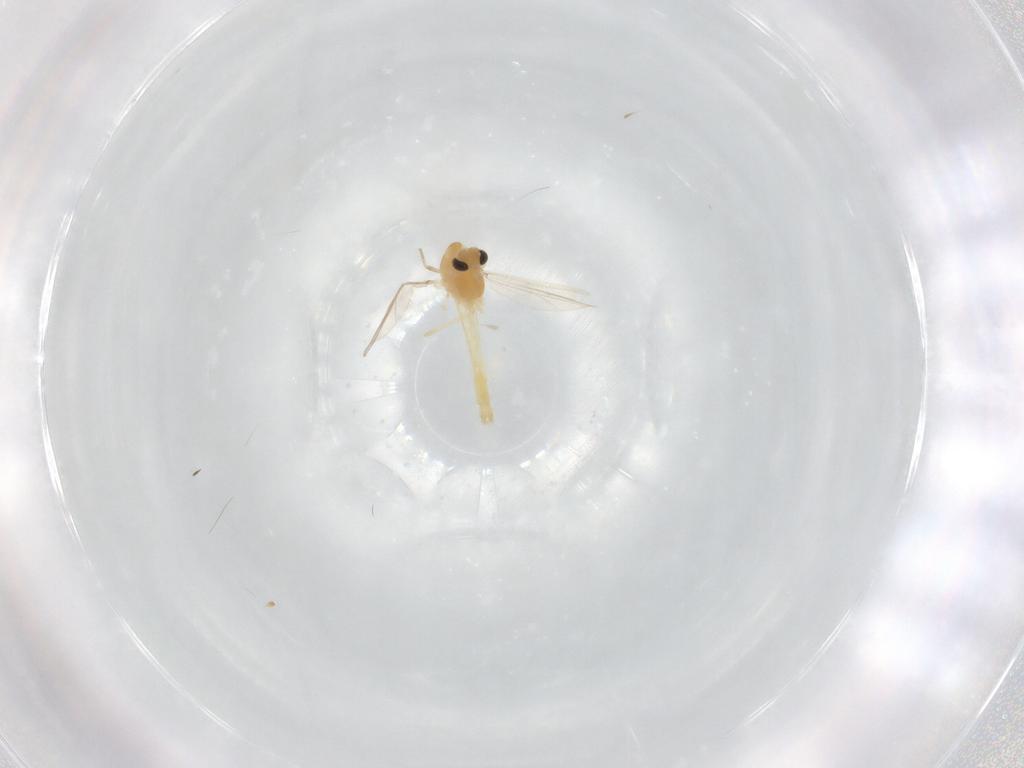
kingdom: Animalia
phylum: Arthropoda
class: Insecta
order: Diptera
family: Chironomidae
